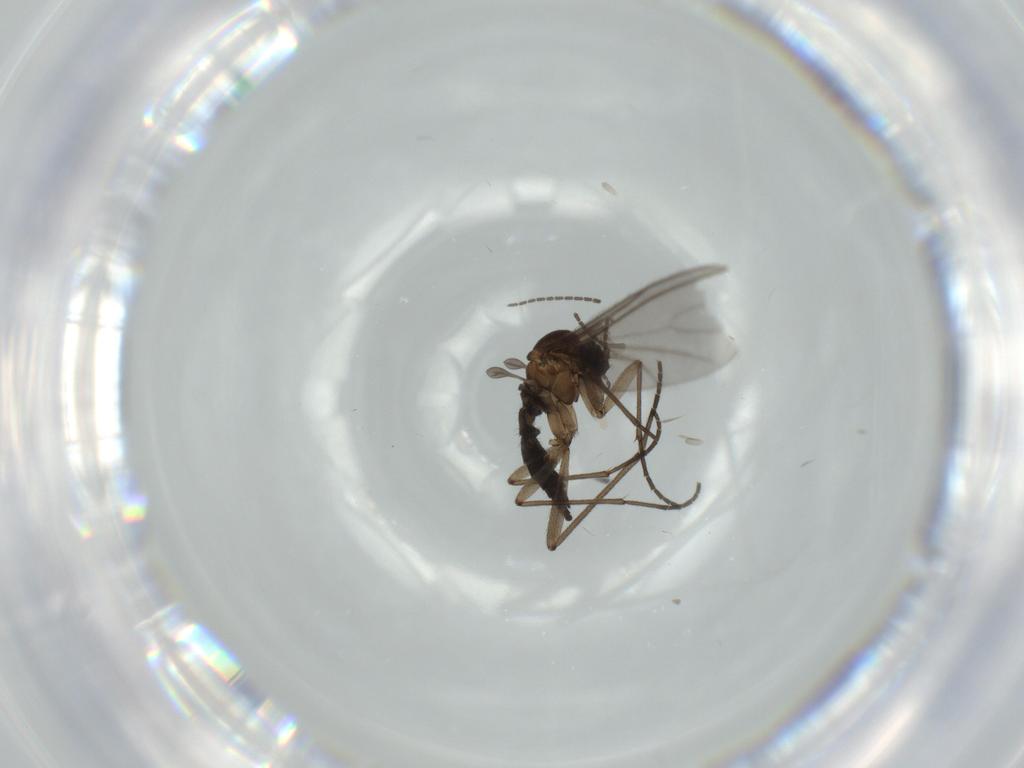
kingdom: Animalia
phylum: Arthropoda
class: Insecta
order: Diptera
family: Sciaridae
